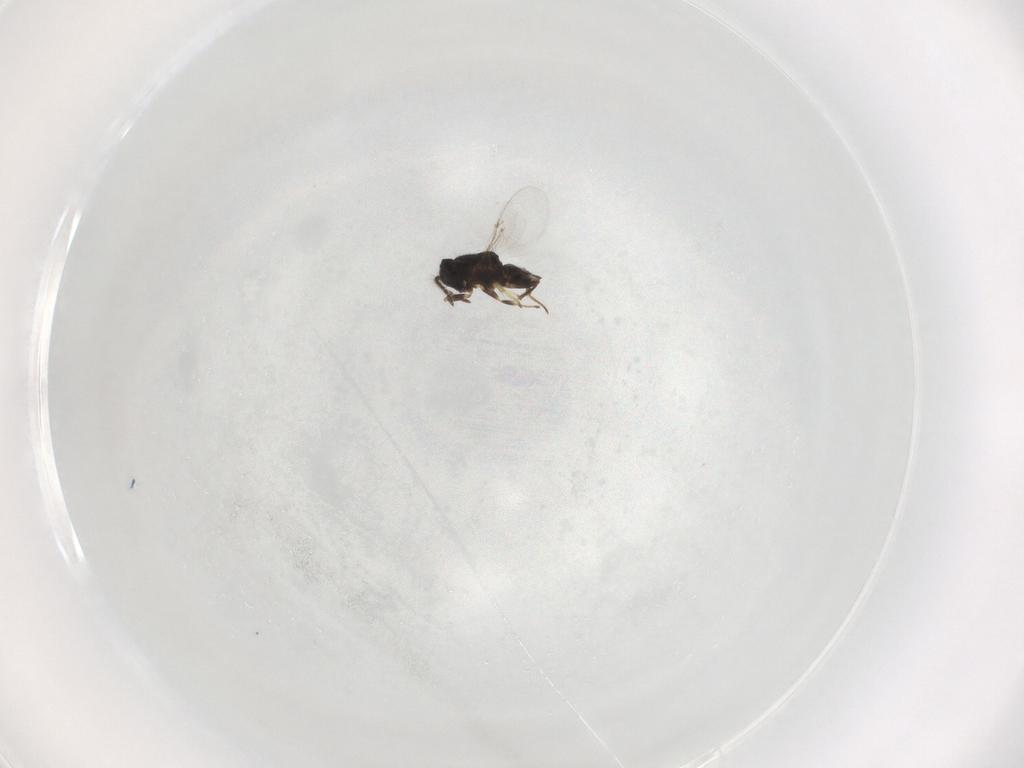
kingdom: Animalia
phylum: Arthropoda
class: Insecta
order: Hymenoptera
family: Encyrtidae
